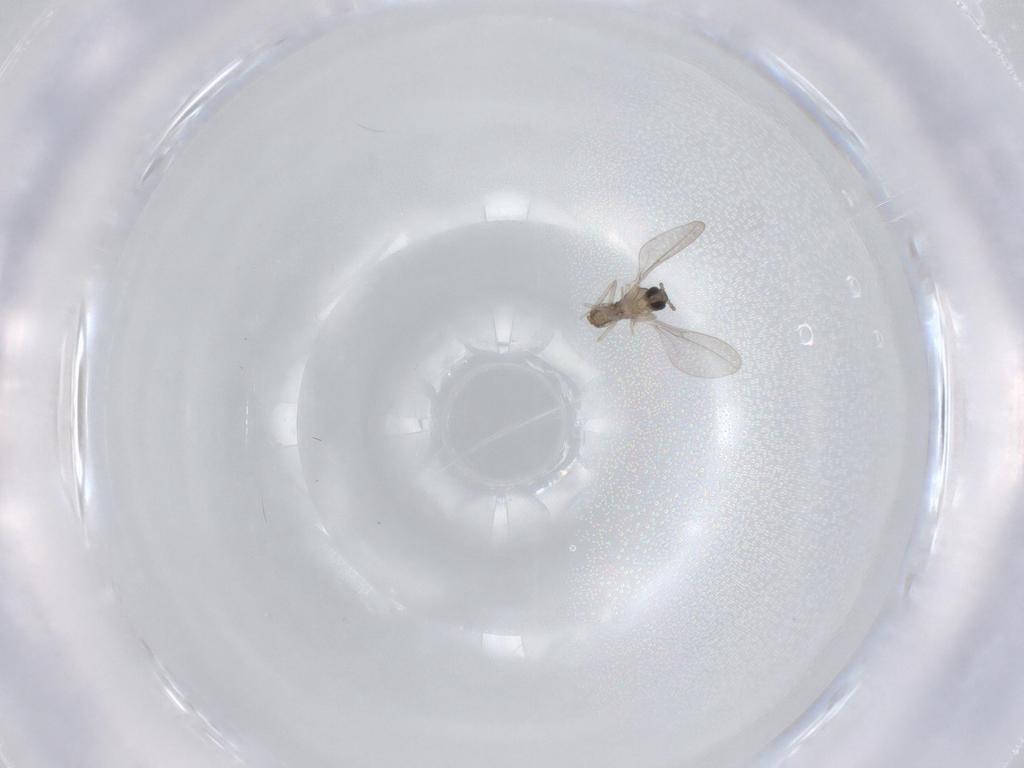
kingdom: Animalia
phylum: Arthropoda
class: Insecta
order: Diptera
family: Cecidomyiidae
